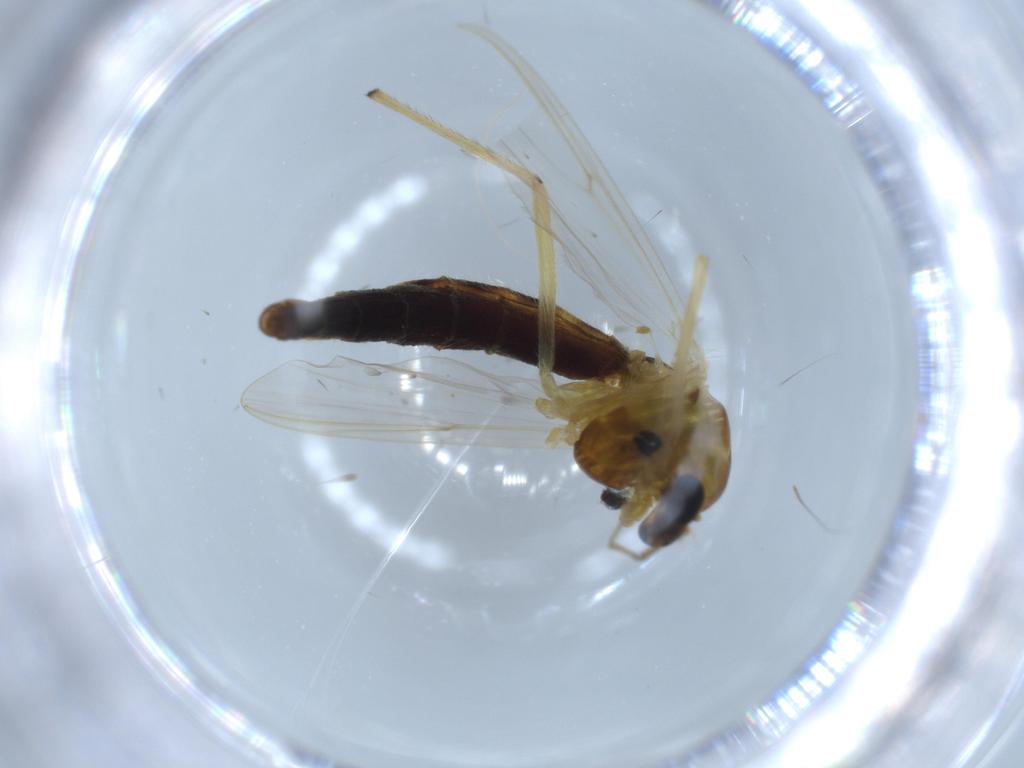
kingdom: Animalia
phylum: Arthropoda
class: Insecta
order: Diptera
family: Chironomidae
